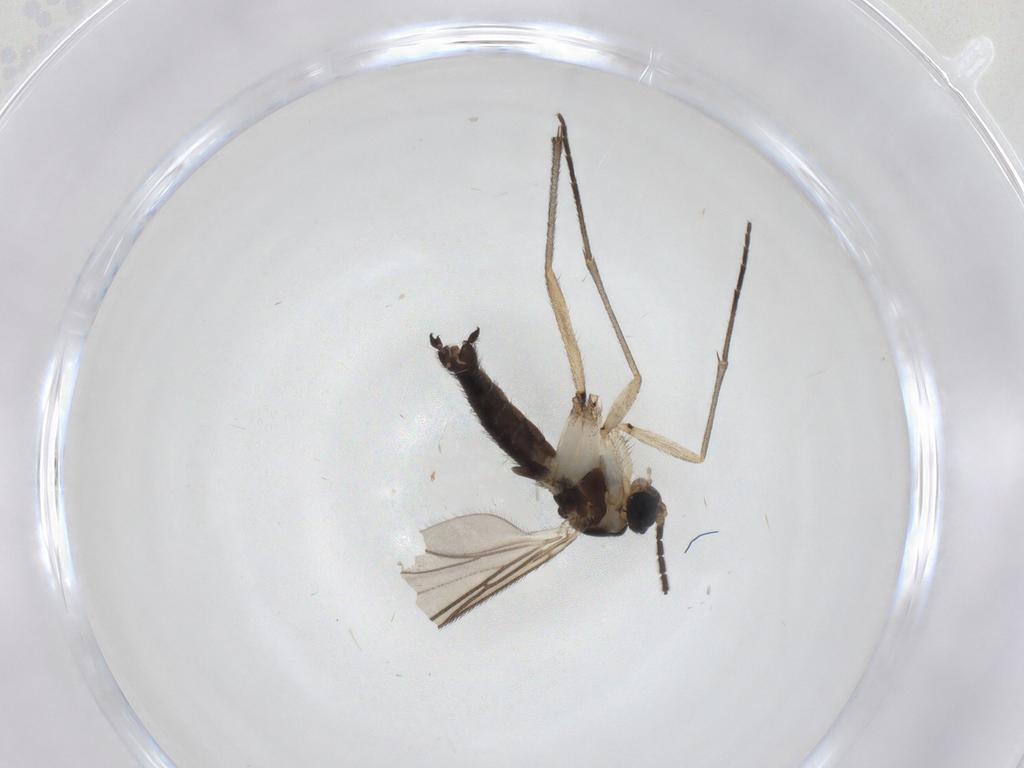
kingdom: Animalia
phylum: Arthropoda
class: Insecta
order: Diptera
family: Sciaridae
